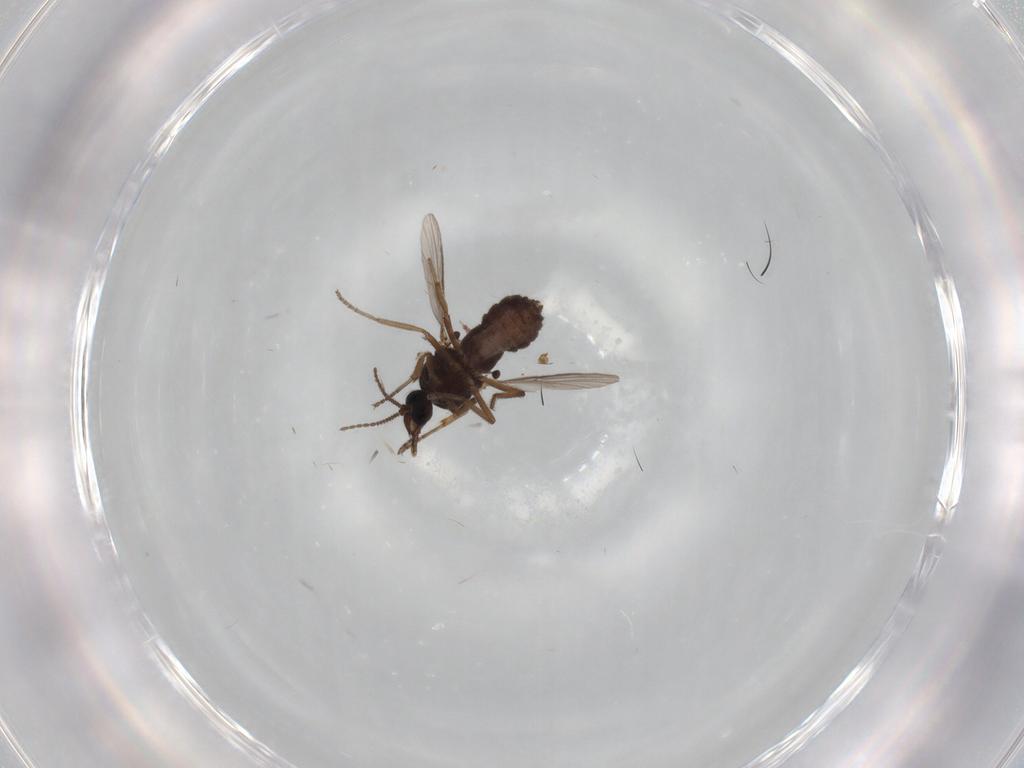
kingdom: Animalia
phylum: Arthropoda
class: Insecta
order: Diptera
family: Ceratopogonidae
